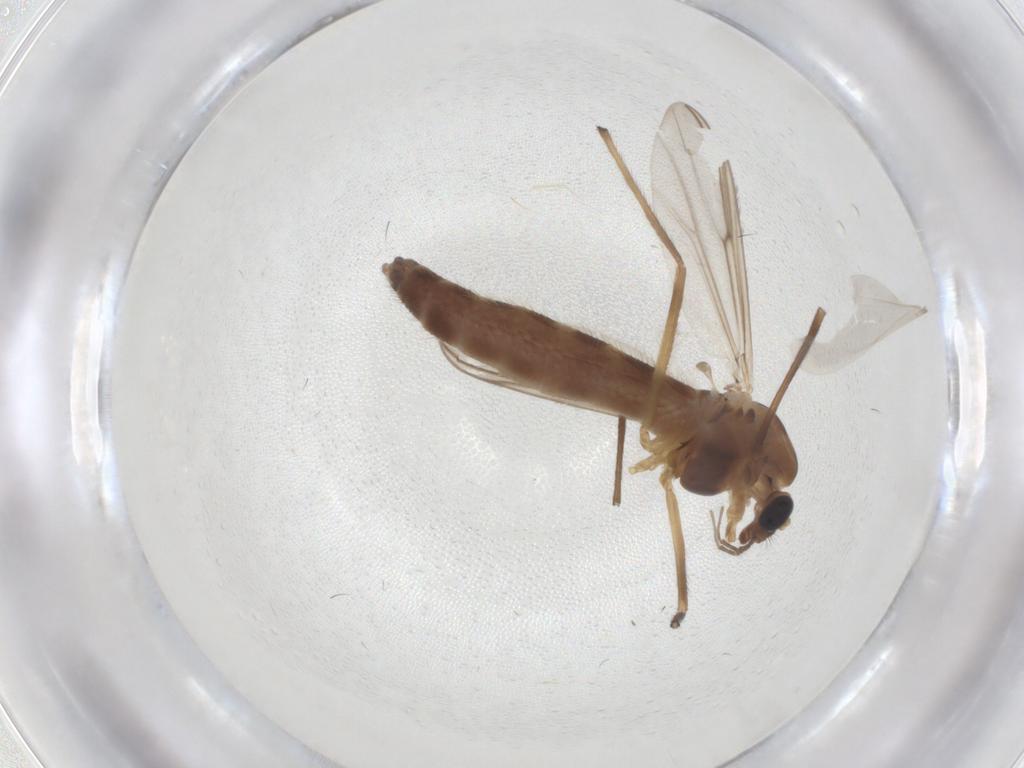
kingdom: Animalia
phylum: Arthropoda
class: Insecta
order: Diptera
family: Chironomidae
